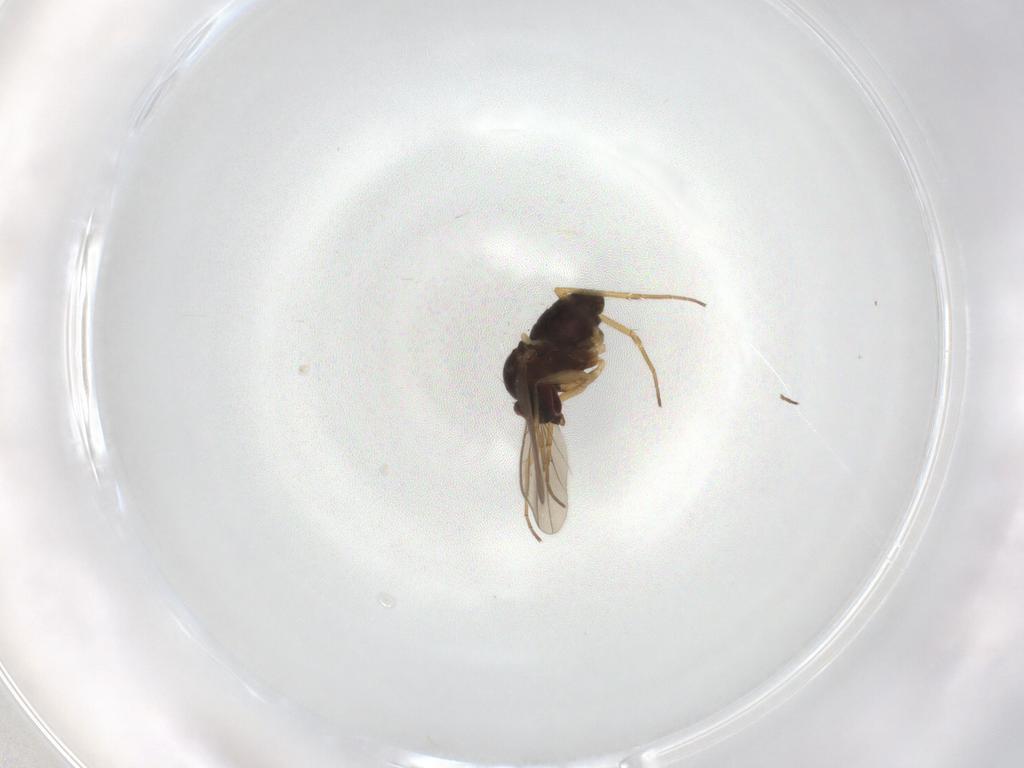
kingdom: Animalia
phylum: Arthropoda
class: Insecta
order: Diptera
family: Dolichopodidae
